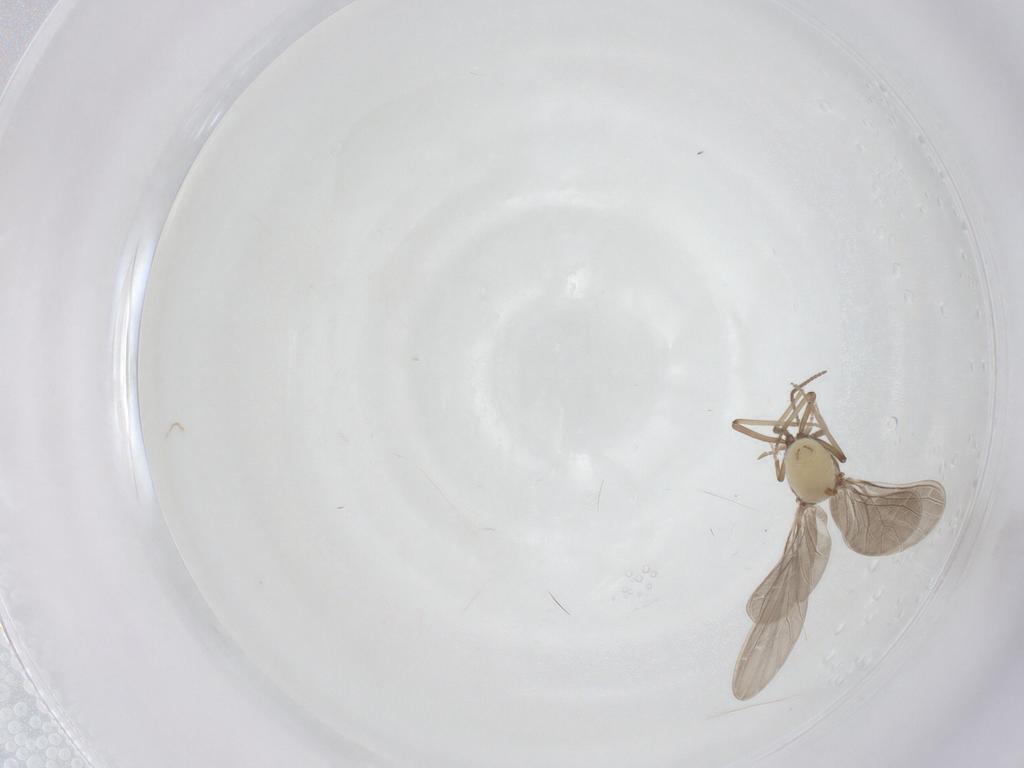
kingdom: Animalia
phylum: Arthropoda
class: Insecta
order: Neuroptera
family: Coniopterygidae
